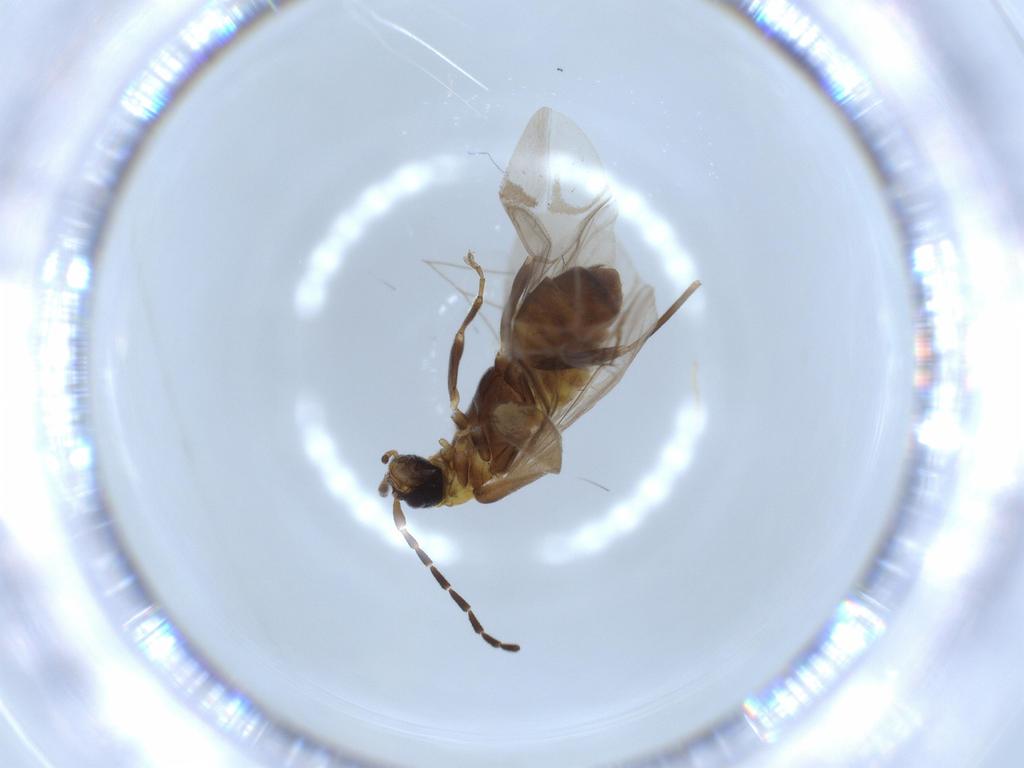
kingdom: Animalia
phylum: Arthropoda
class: Insecta
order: Coleoptera
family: Cantharidae
